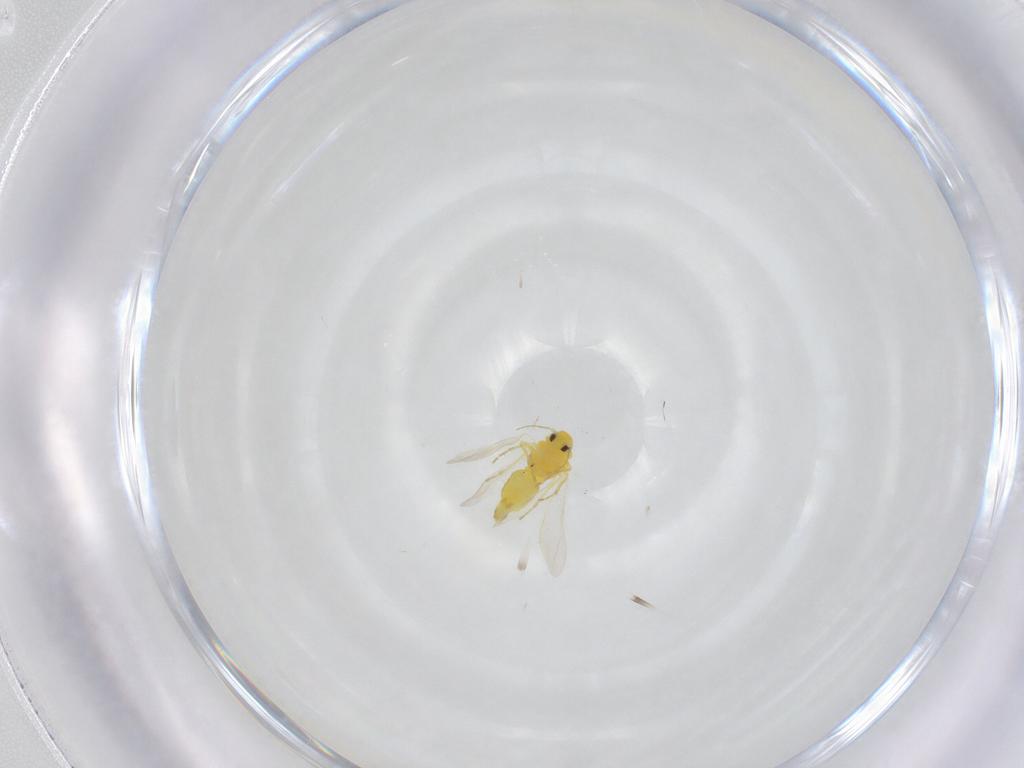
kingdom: Animalia
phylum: Arthropoda
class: Insecta
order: Hemiptera
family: Aleyrodidae
